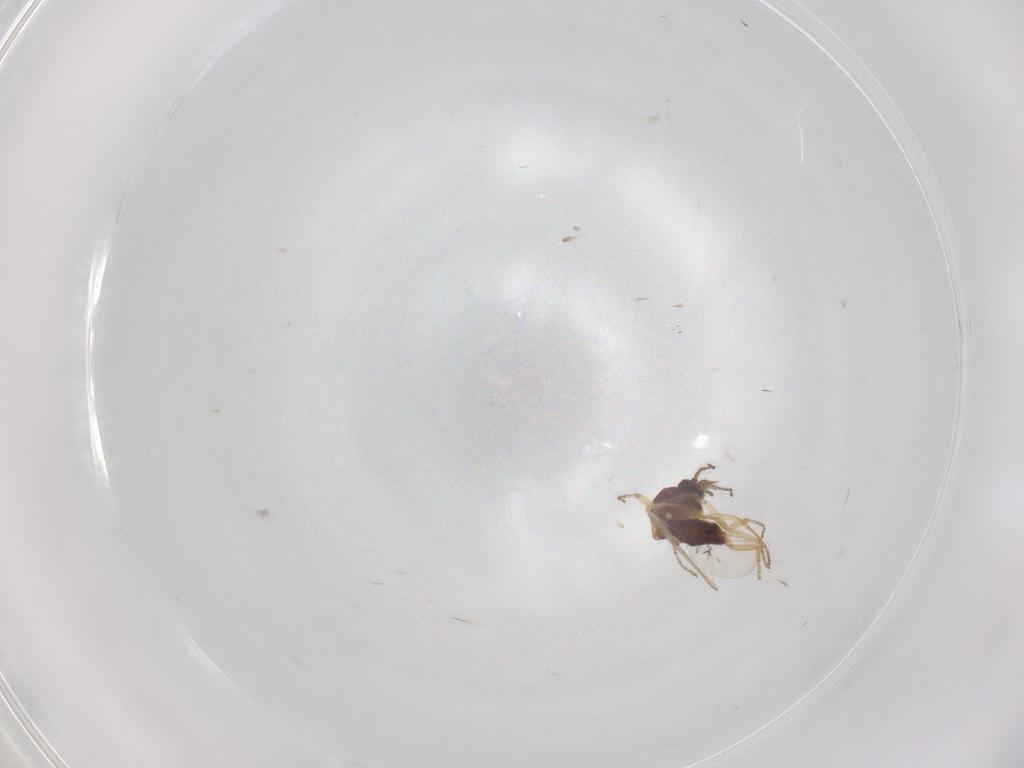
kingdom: Animalia
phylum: Arthropoda
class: Insecta
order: Diptera
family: Ceratopogonidae
